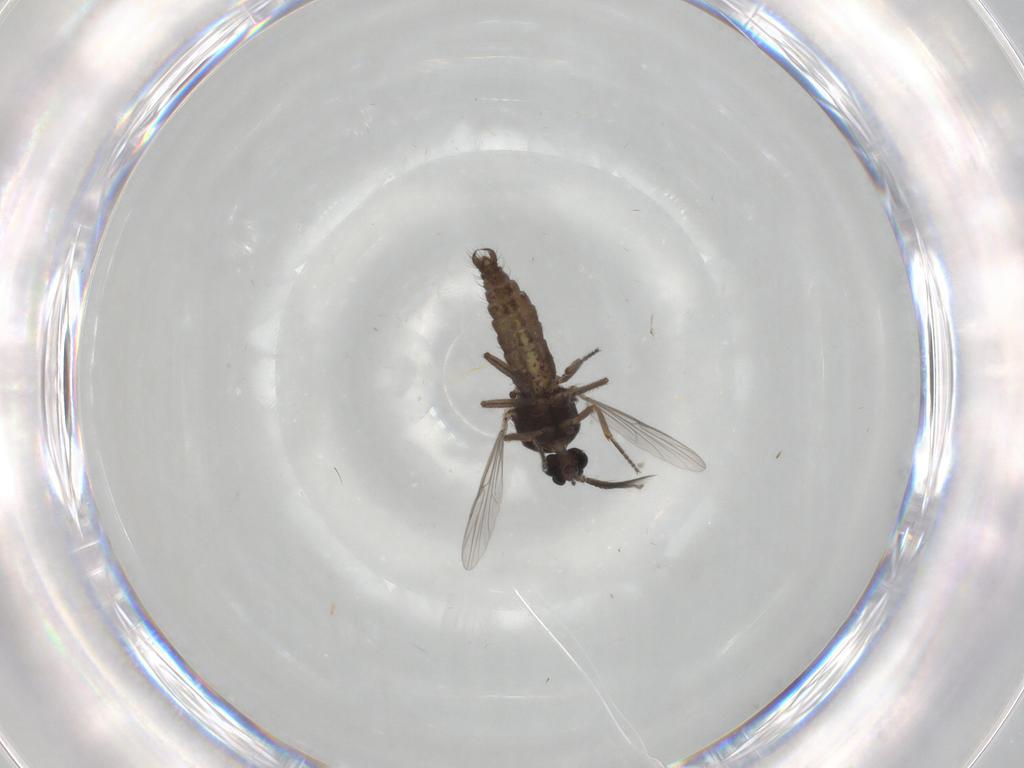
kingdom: Animalia
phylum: Arthropoda
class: Insecta
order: Diptera
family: Ceratopogonidae
